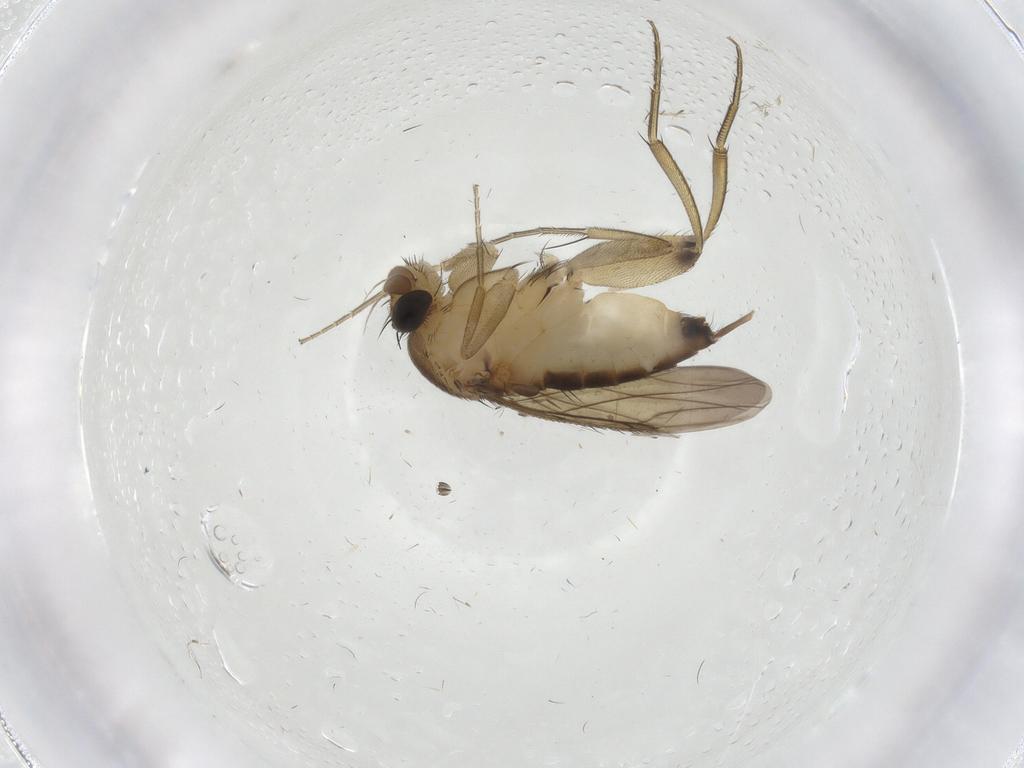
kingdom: Animalia
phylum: Arthropoda
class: Insecta
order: Diptera
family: Phoridae
